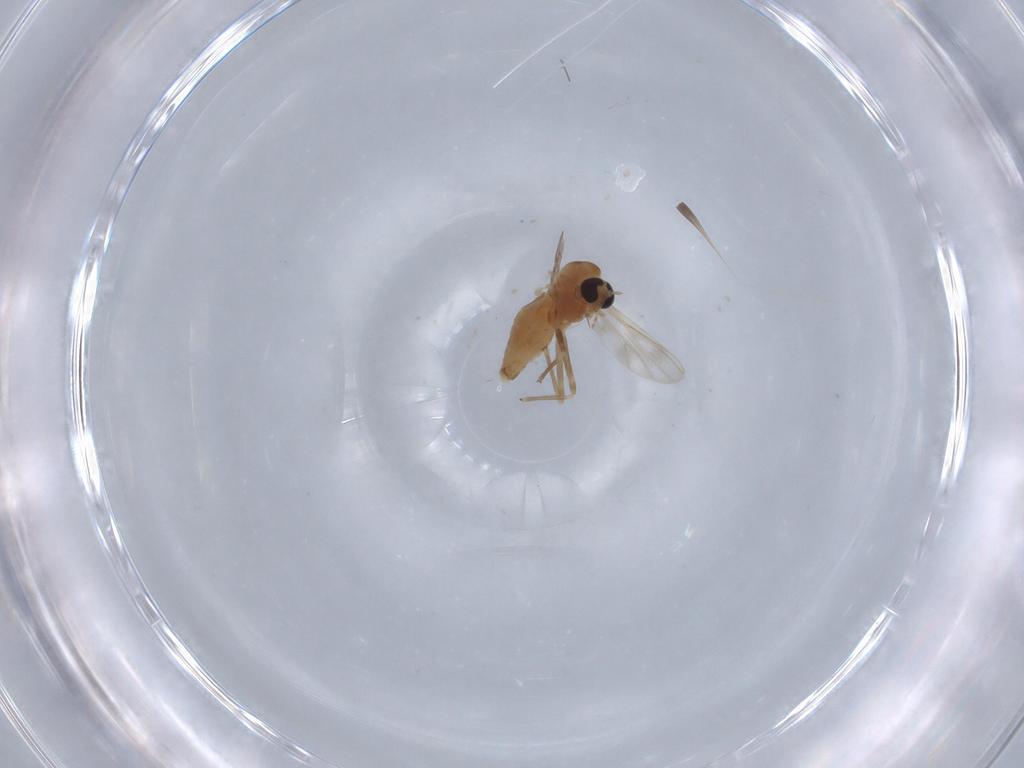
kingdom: Animalia
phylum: Arthropoda
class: Insecta
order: Diptera
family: Chironomidae
